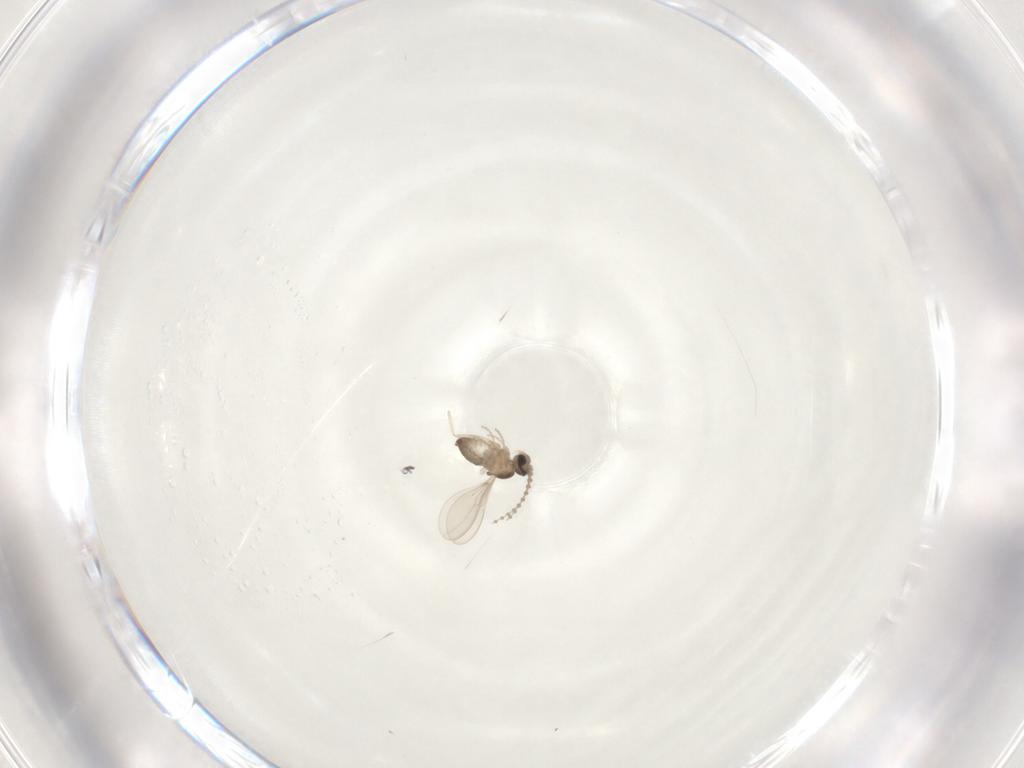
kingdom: Animalia
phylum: Arthropoda
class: Insecta
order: Diptera
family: Cecidomyiidae
